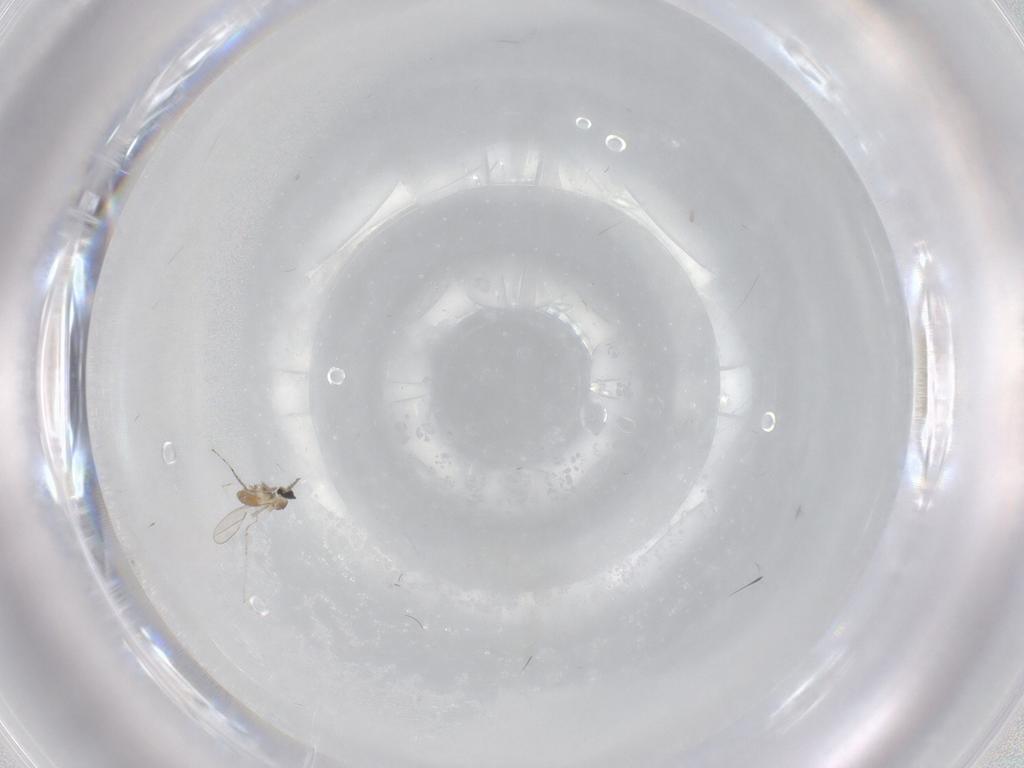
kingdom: Animalia
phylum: Arthropoda
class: Insecta
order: Diptera
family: Cecidomyiidae
